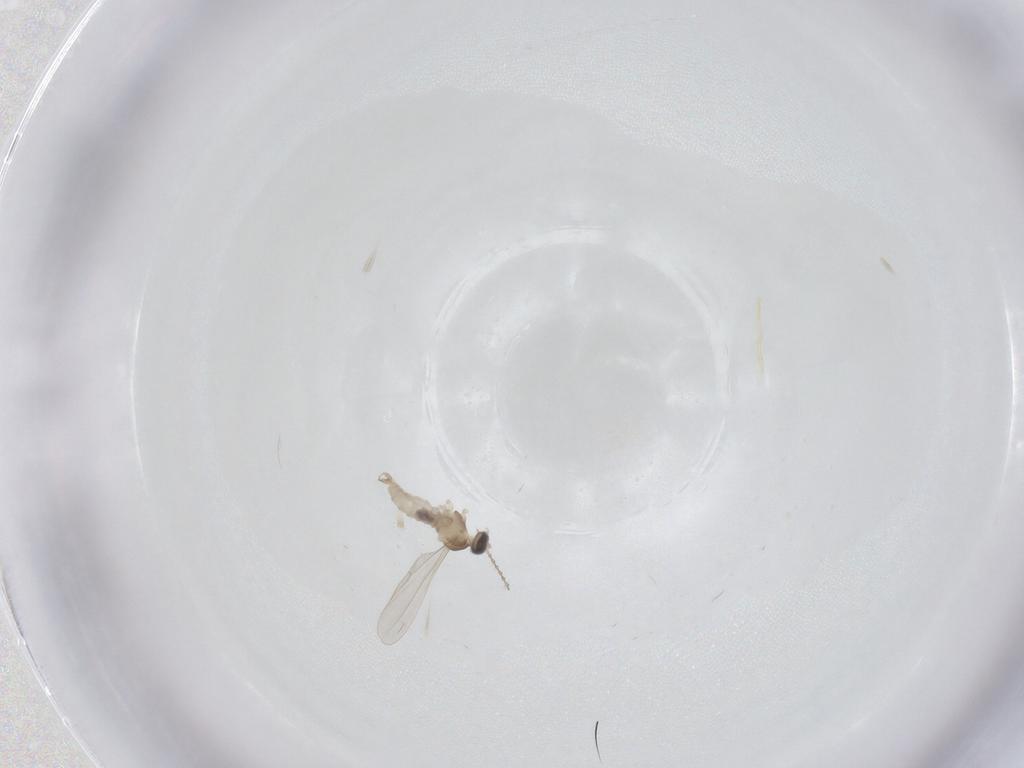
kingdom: Animalia
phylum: Arthropoda
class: Insecta
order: Diptera
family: Cecidomyiidae
